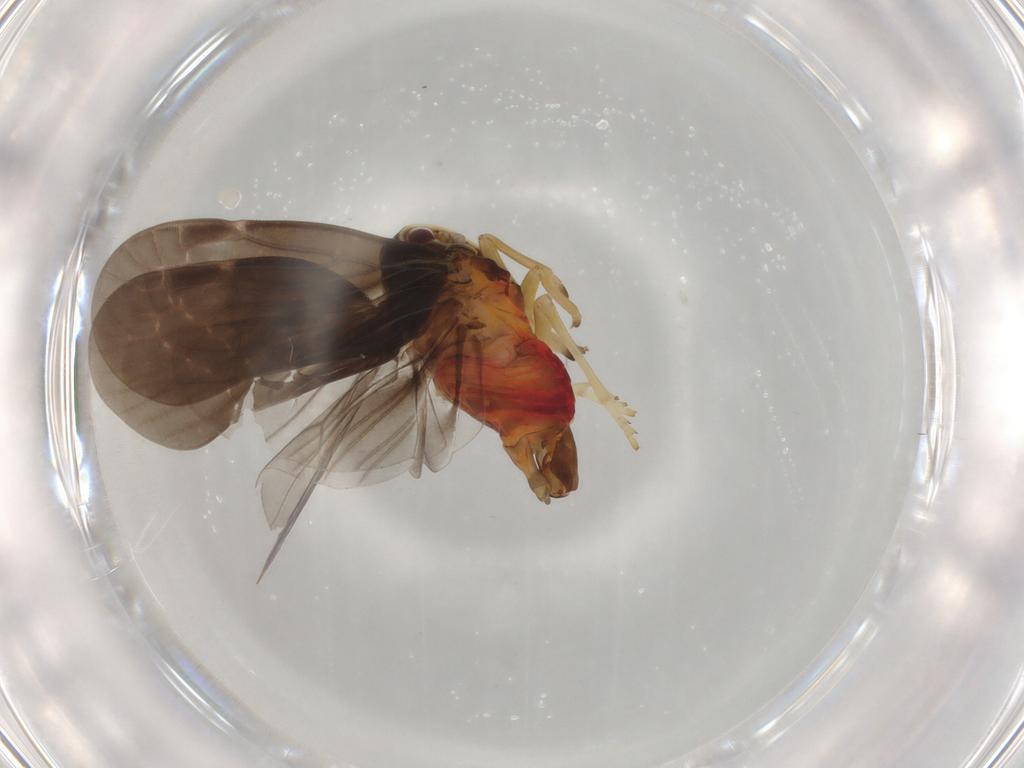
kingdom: Animalia
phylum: Arthropoda
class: Insecta
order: Hemiptera
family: Derbidae
